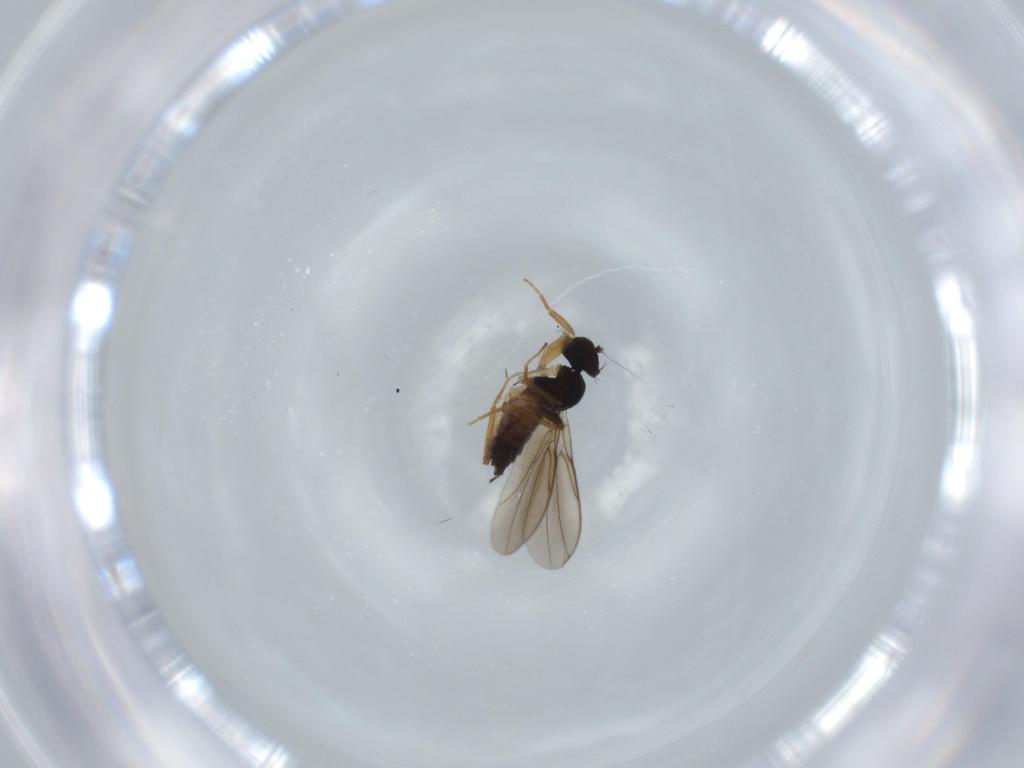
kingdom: Animalia
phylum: Arthropoda
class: Insecta
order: Diptera
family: Hybotidae
